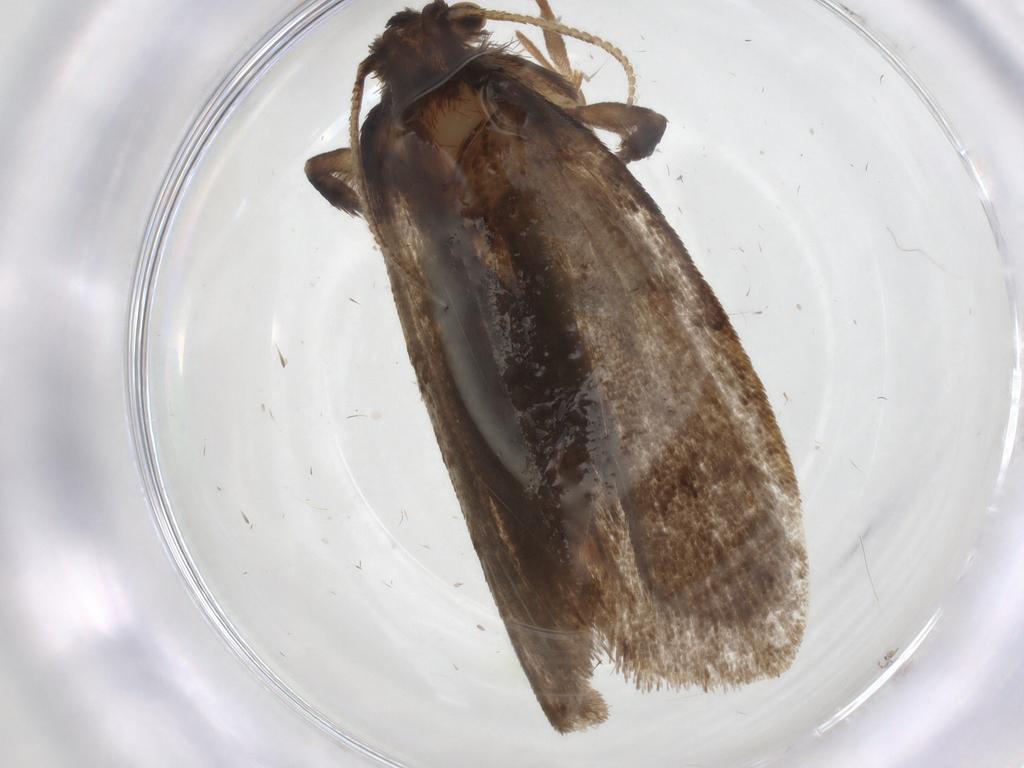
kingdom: Animalia
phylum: Arthropoda
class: Insecta
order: Lepidoptera
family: Tineidae
